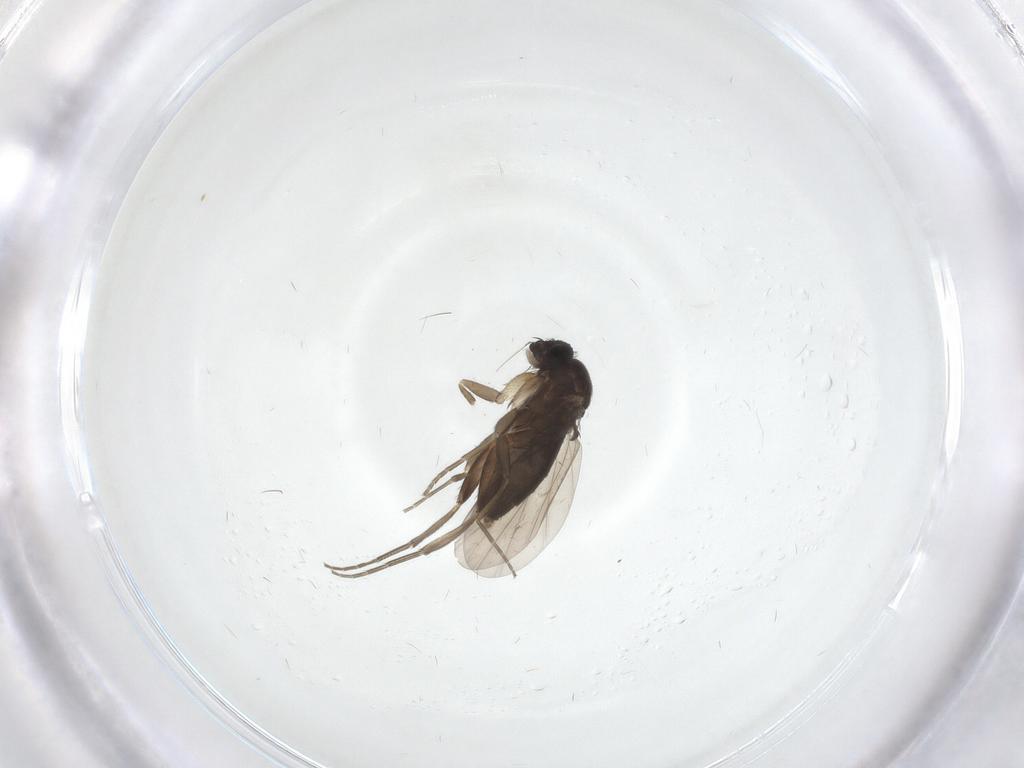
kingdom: Animalia
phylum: Arthropoda
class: Insecta
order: Diptera
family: Phoridae
